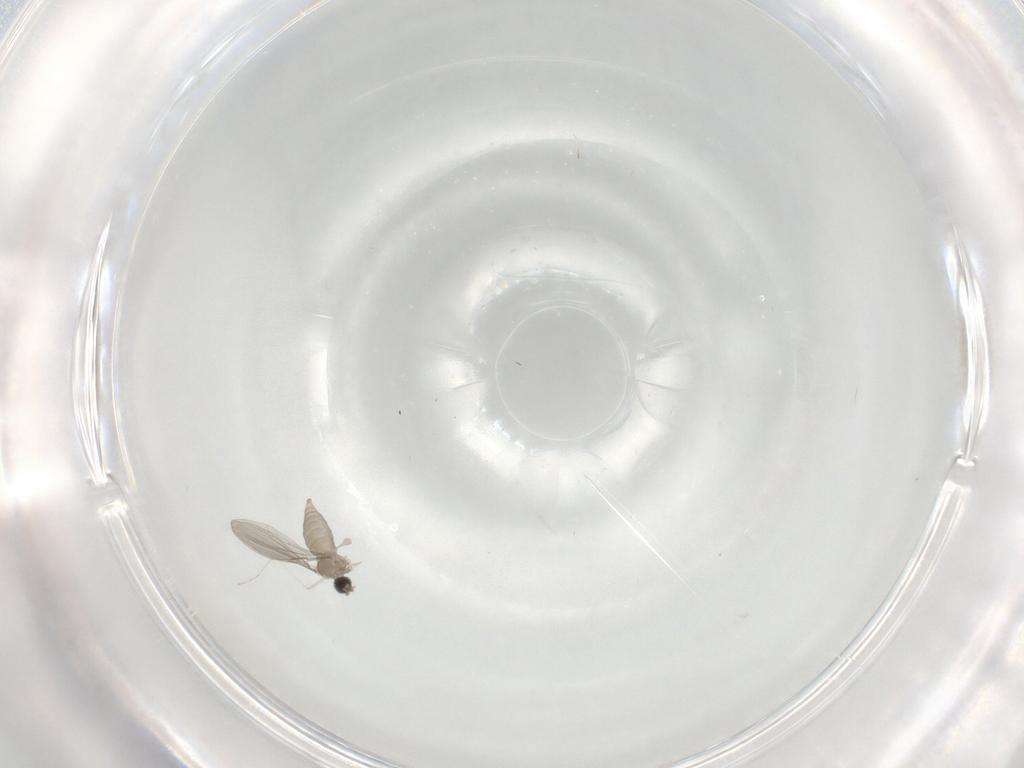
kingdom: Animalia
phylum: Arthropoda
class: Insecta
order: Diptera
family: Cecidomyiidae
